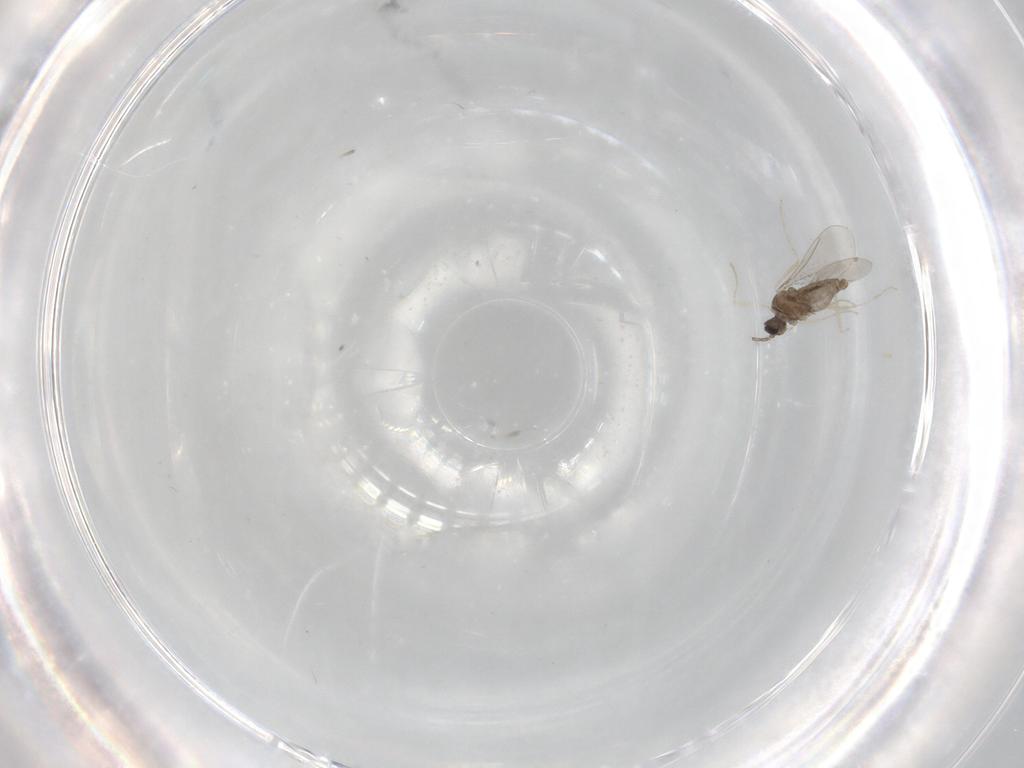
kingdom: Animalia
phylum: Arthropoda
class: Insecta
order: Diptera
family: Cecidomyiidae
